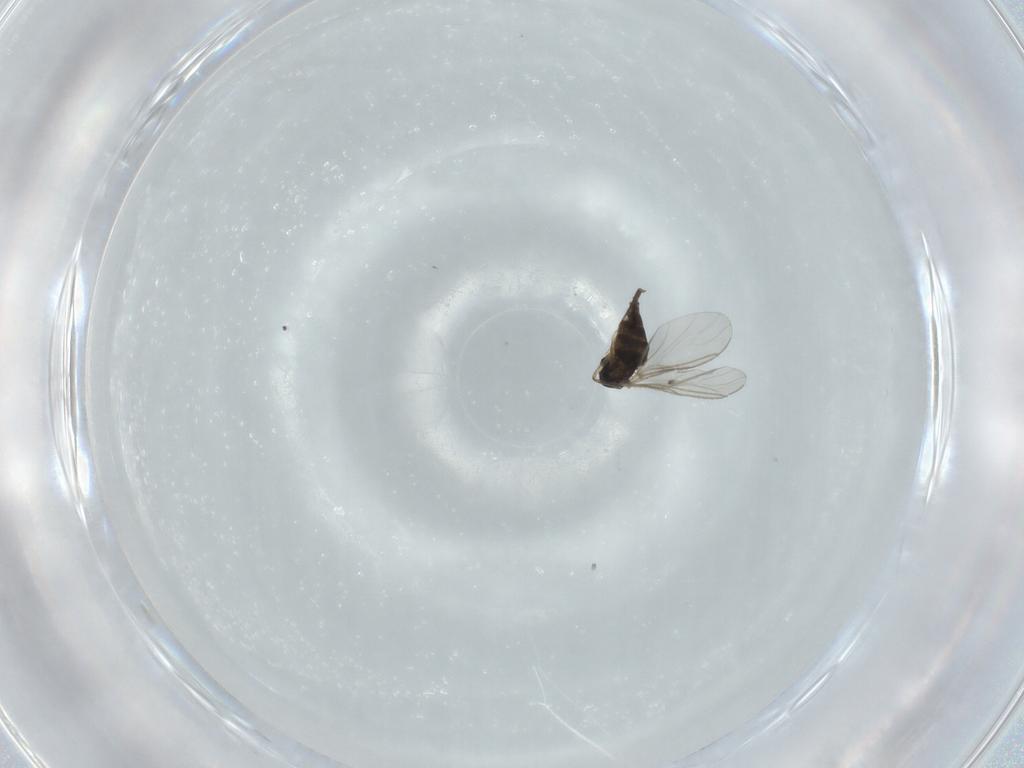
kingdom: Animalia
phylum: Arthropoda
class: Insecta
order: Diptera
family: Sciaridae
